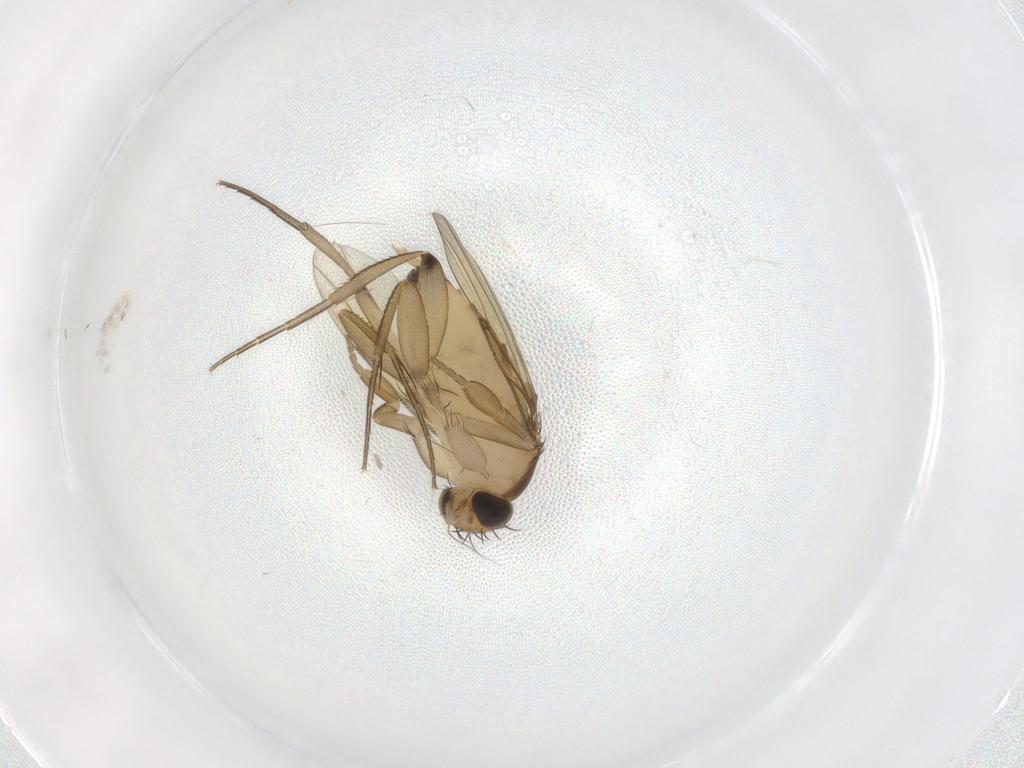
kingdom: Animalia
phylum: Arthropoda
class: Insecta
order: Diptera
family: Phoridae
